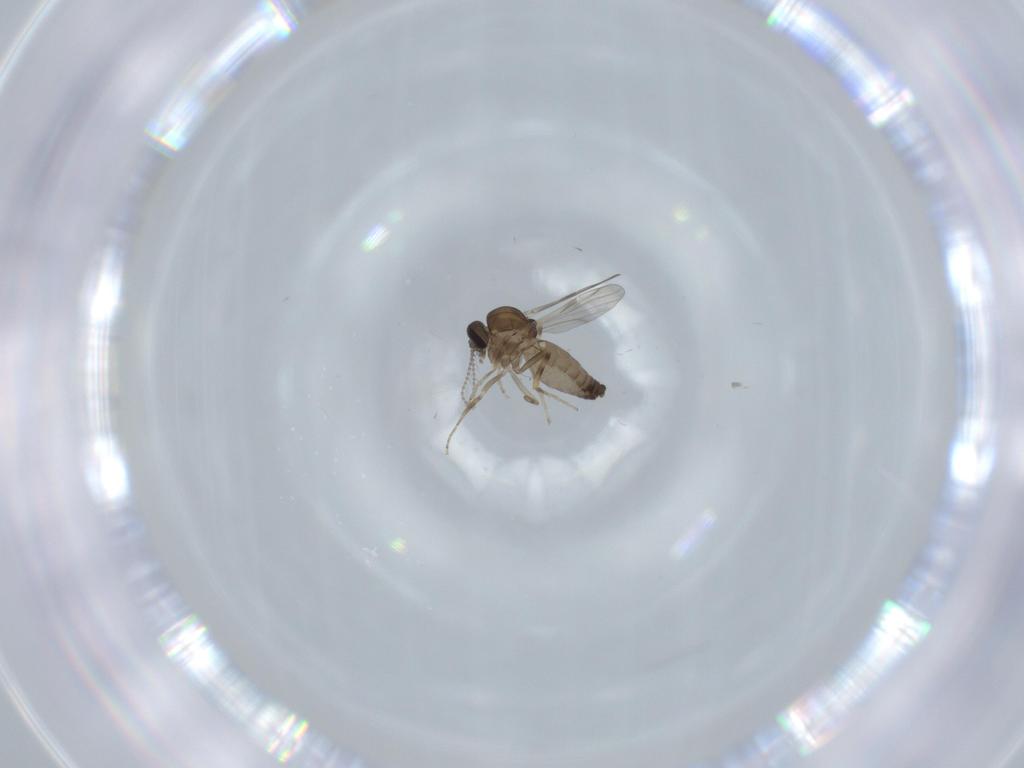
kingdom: Animalia
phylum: Arthropoda
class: Insecta
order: Diptera
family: Ceratopogonidae
